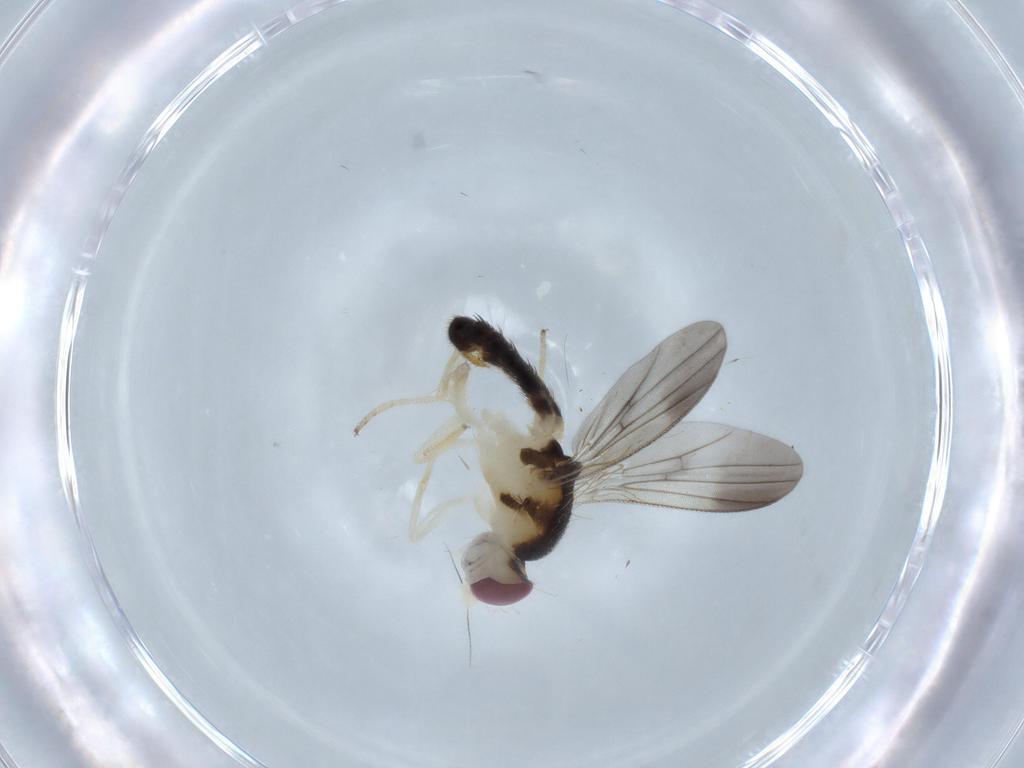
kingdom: Animalia
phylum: Arthropoda
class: Insecta
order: Diptera
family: Clusiidae
